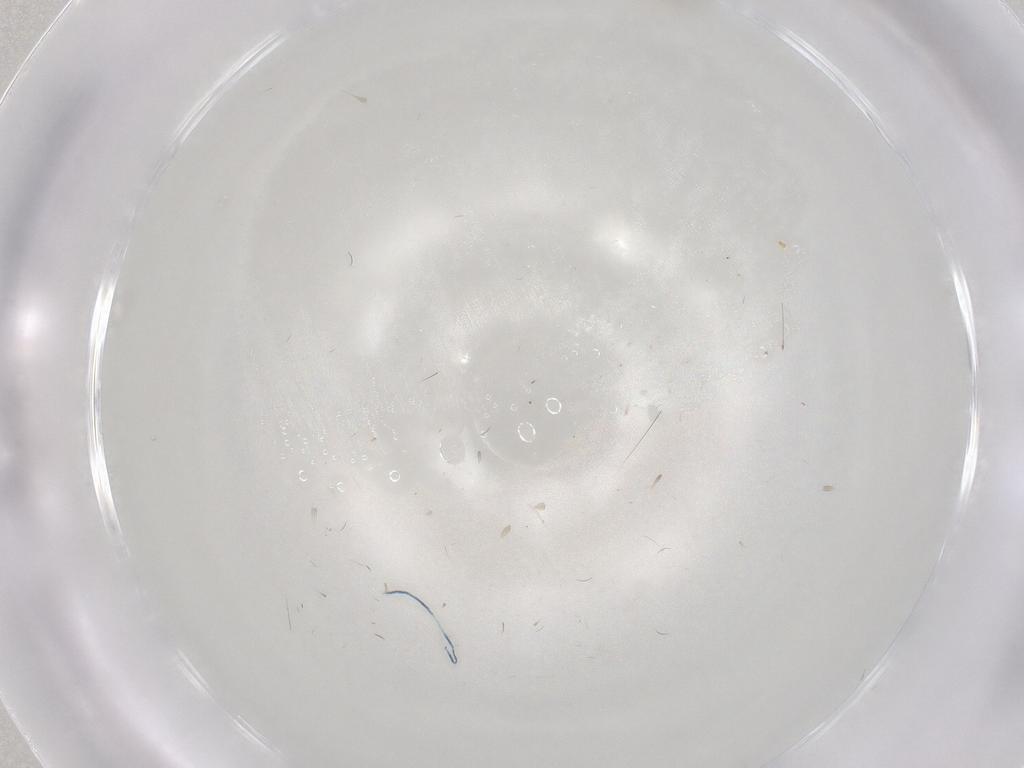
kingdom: Animalia
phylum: Arthropoda
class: Insecta
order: Diptera
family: Cecidomyiidae
